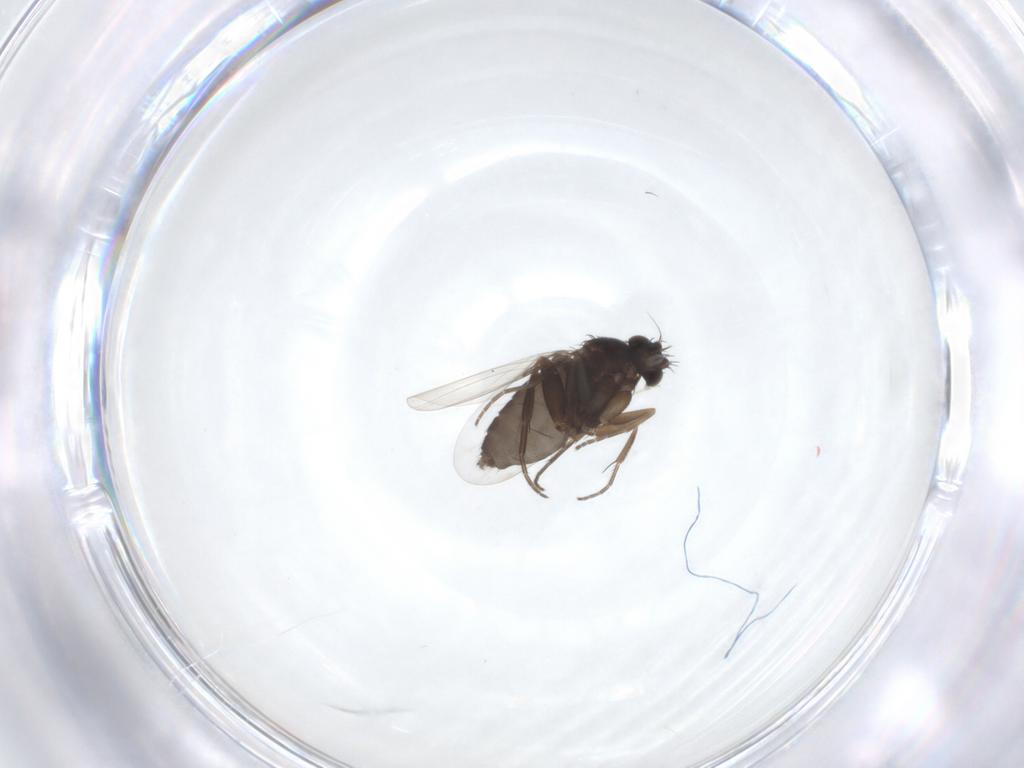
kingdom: Animalia
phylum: Arthropoda
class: Insecta
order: Diptera
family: Phoridae
